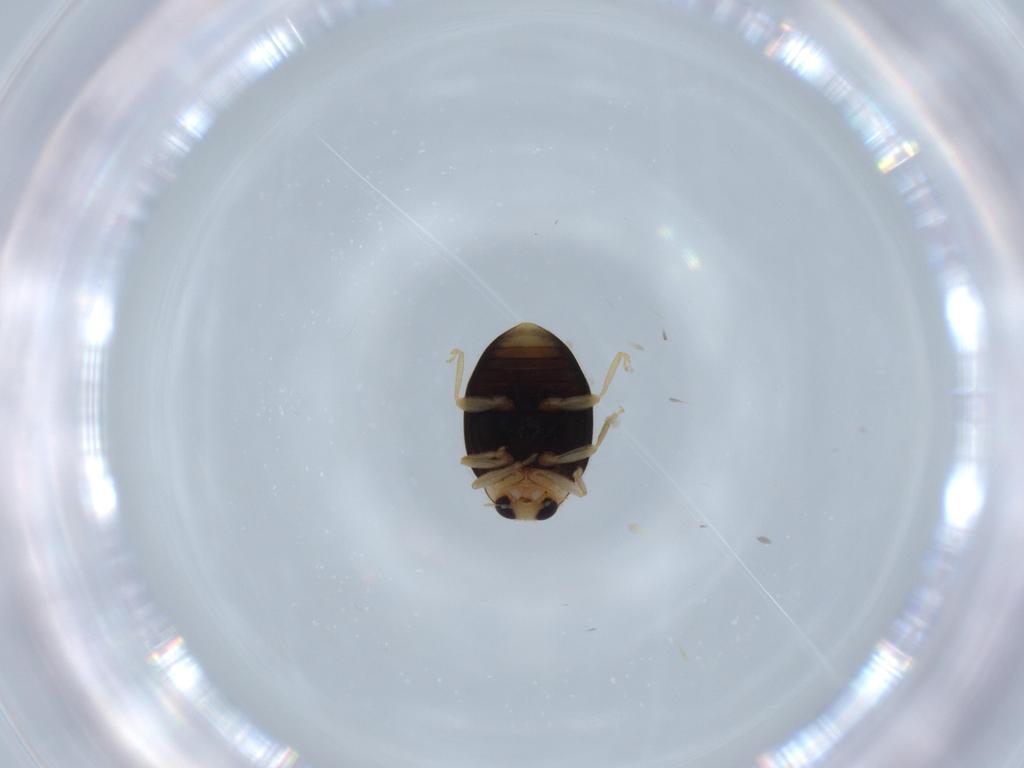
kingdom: Animalia
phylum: Arthropoda
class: Insecta
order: Coleoptera
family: Coccinellidae
